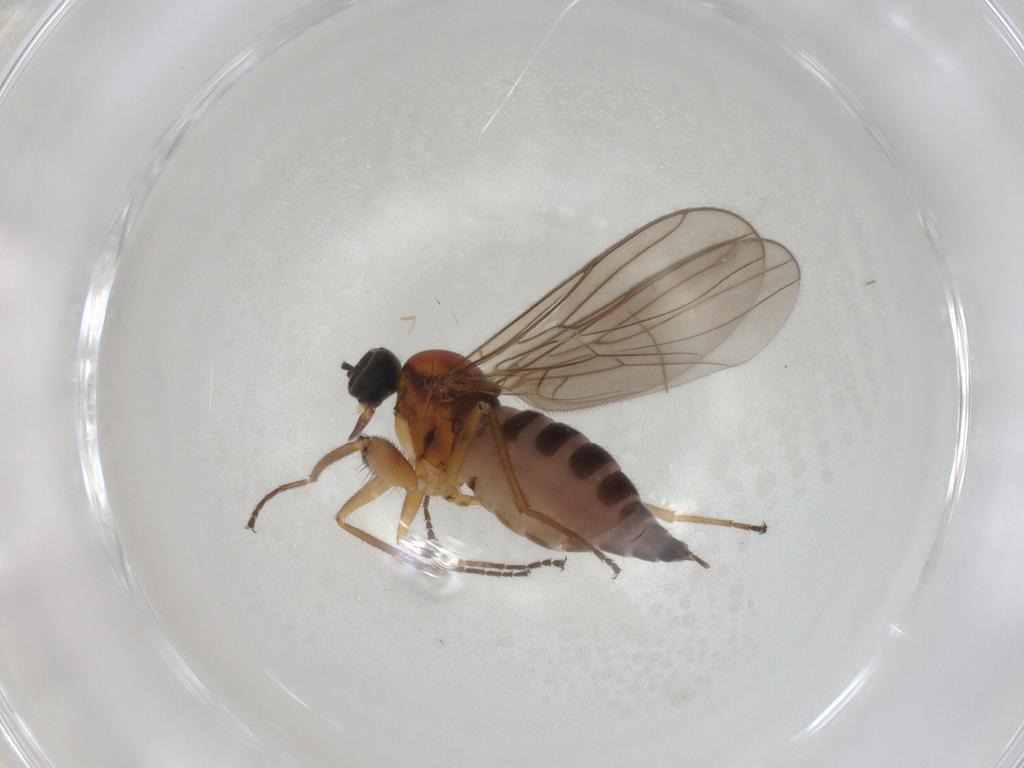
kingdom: Animalia
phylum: Arthropoda
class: Insecta
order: Diptera
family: Hybotidae
